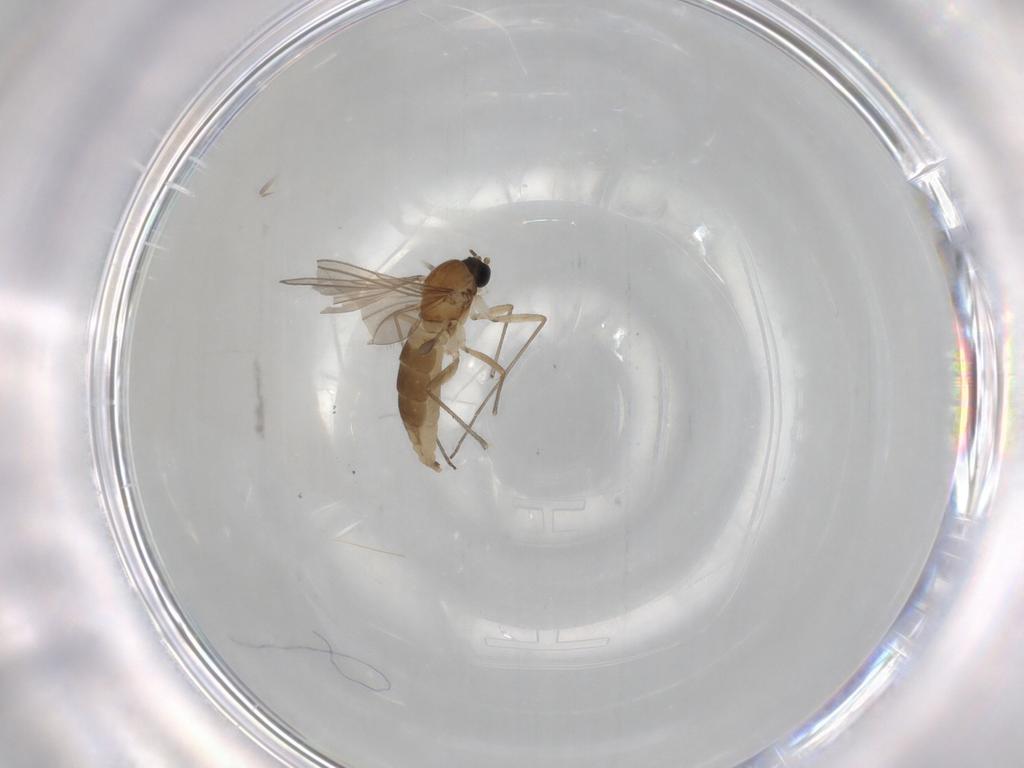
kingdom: Animalia
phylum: Arthropoda
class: Insecta
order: Diptera
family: Sciaridae
